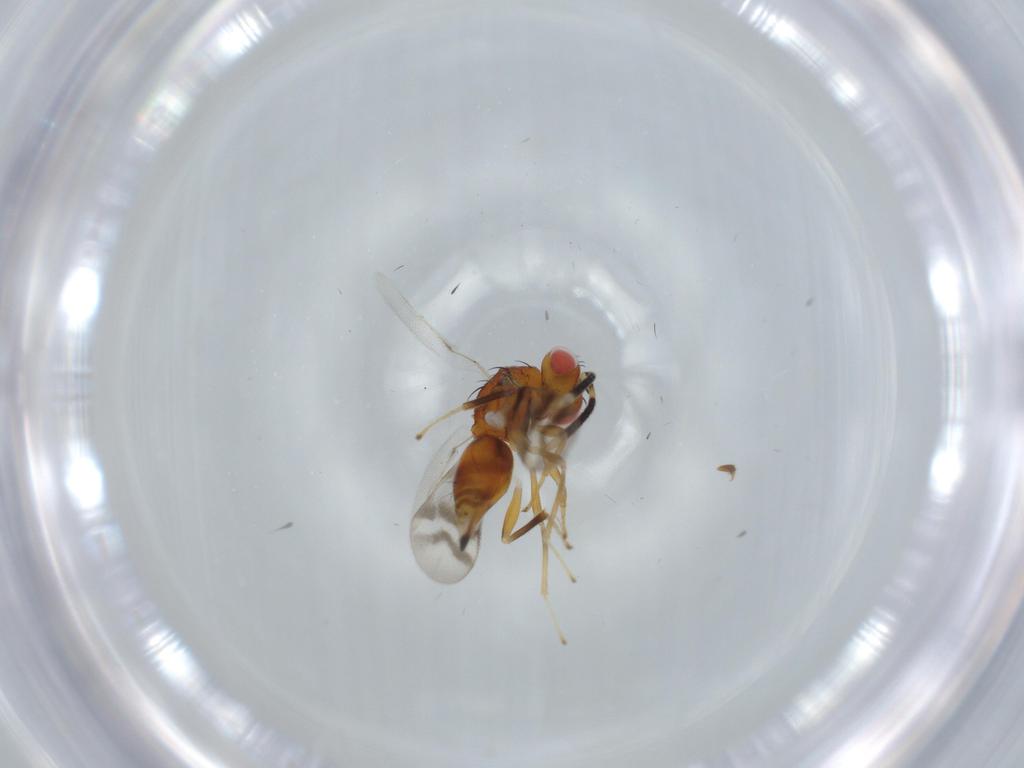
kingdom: Animalia
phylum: Arthropoda
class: Insecta
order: Hymenoptera
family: Diparidae
